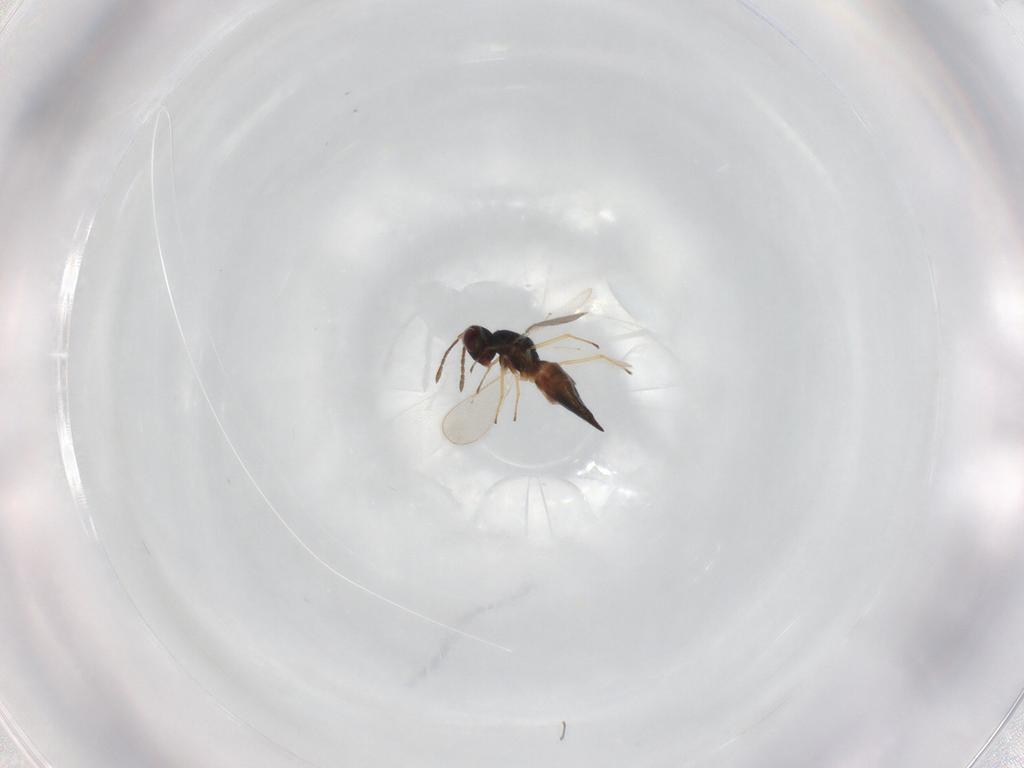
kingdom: Animalia
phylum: Arthropoda
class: Insecta
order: Hymenoptera
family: Eulophidae
